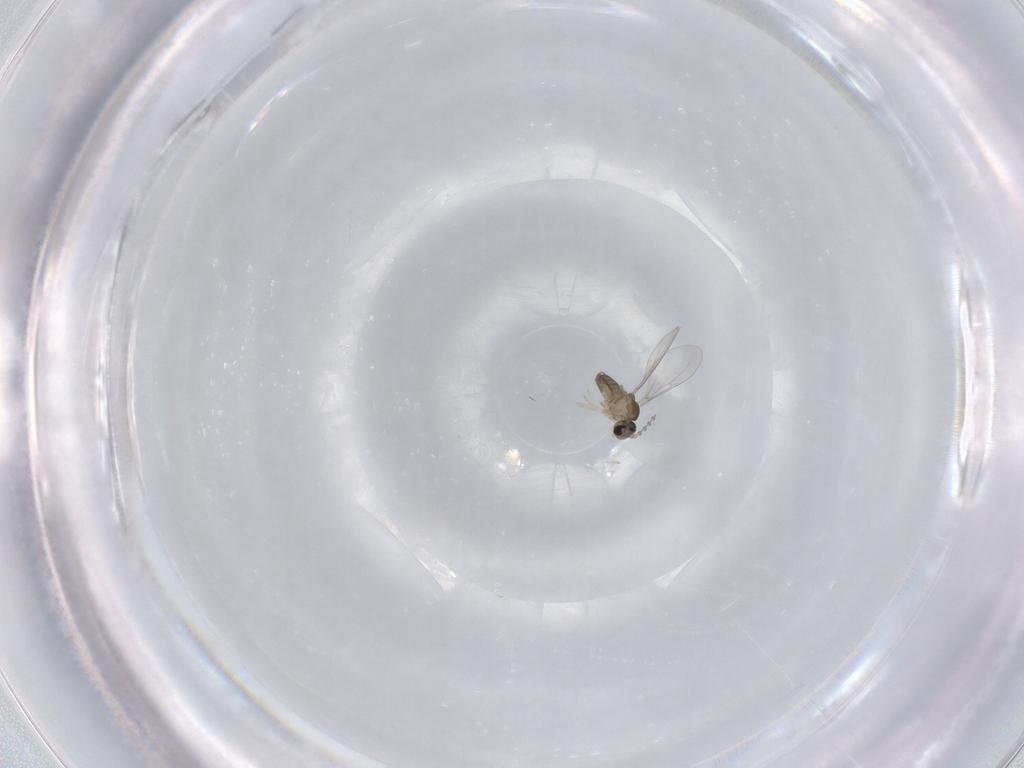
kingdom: Animalia
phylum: Arthropoda
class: Insecta
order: Diptera
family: Cecidomyiidae
